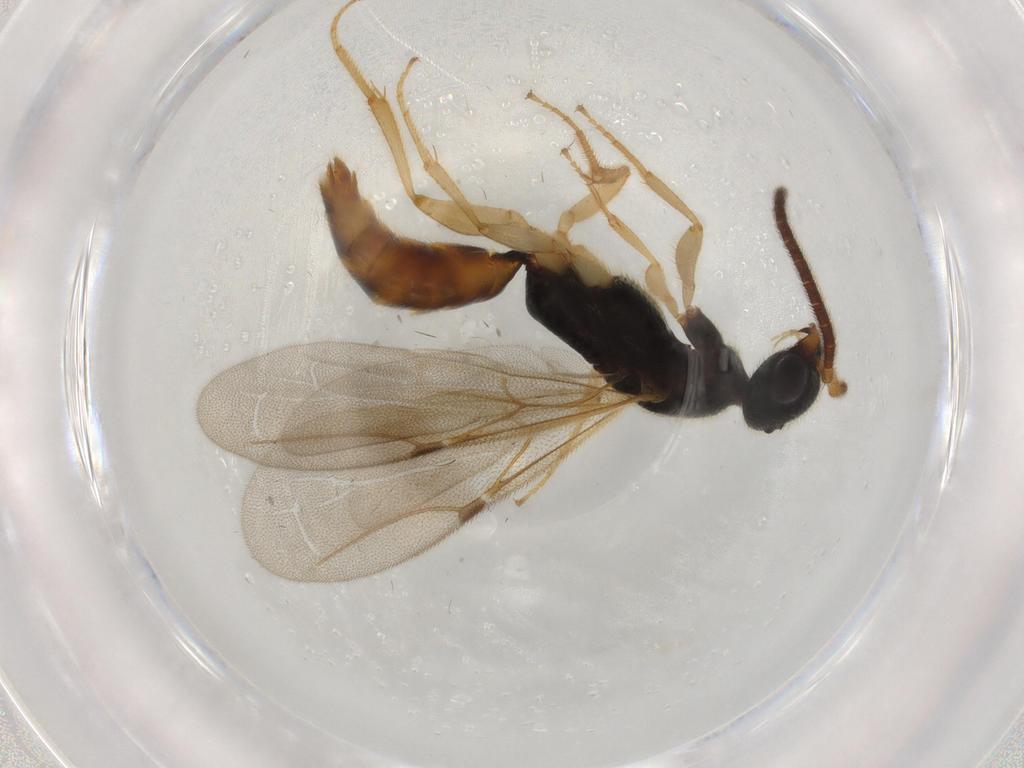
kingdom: Animalia
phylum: Arthropoda
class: Insecta
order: Hymenoptera
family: Bethylidae
